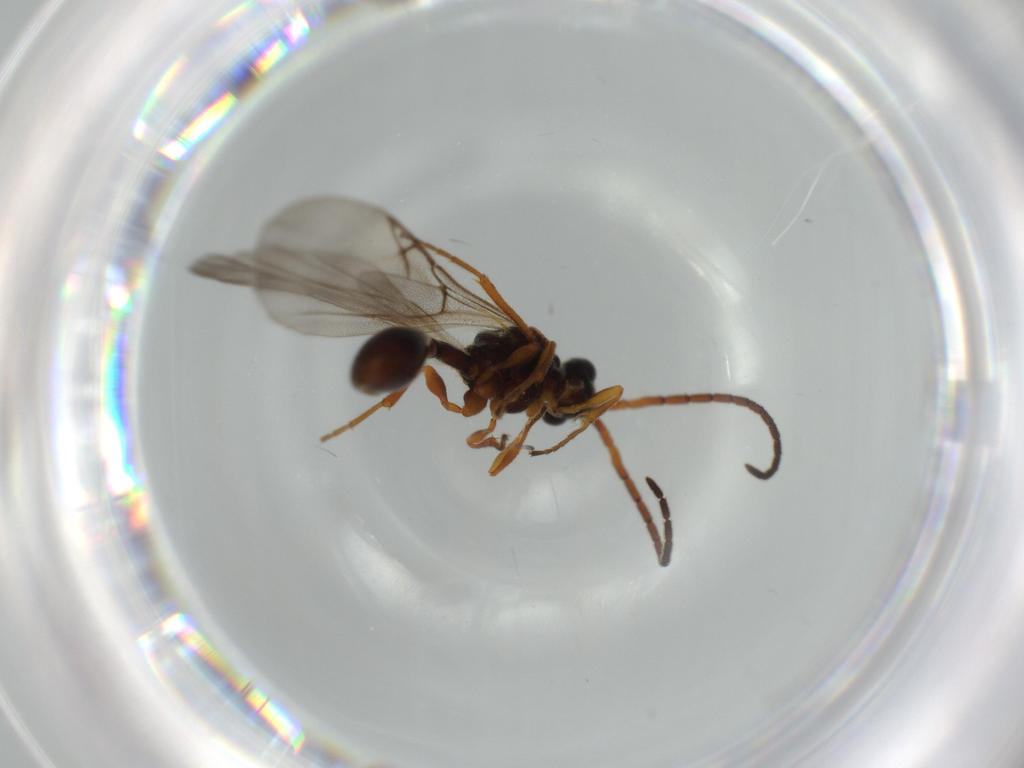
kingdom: Animalia
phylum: Arthropoda
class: Insecta
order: Hymenoptera
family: Diapriidae
